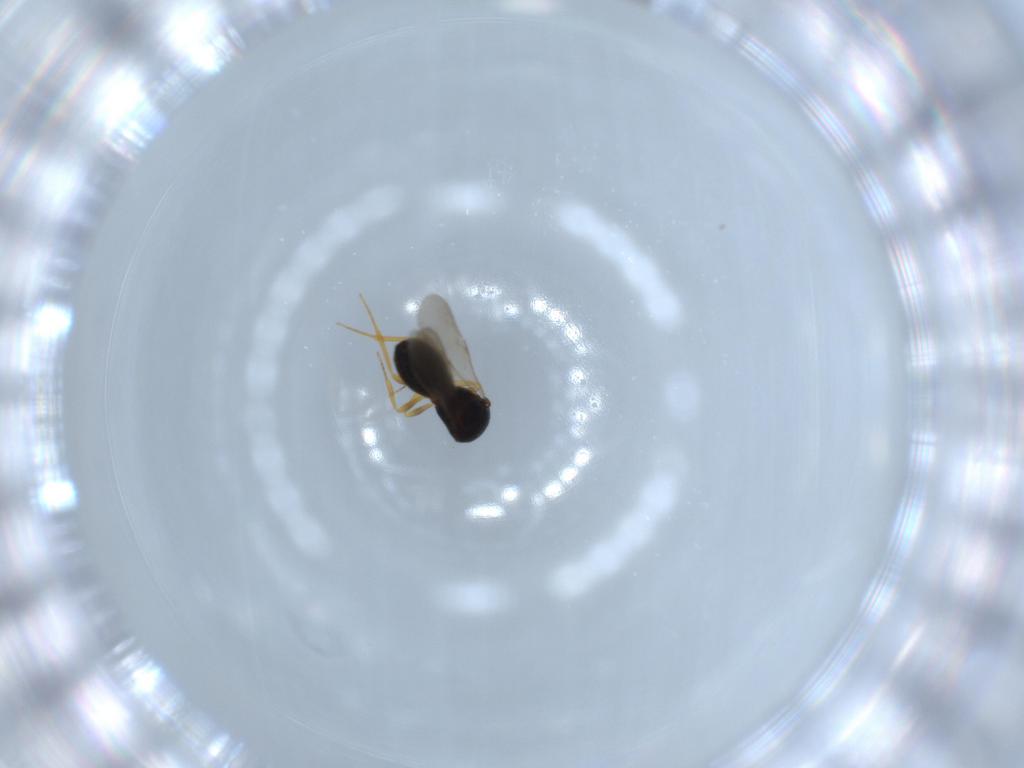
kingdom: Animalia
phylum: Arthropoda
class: Insecta
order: Hymenoptera
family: Scelionidae
